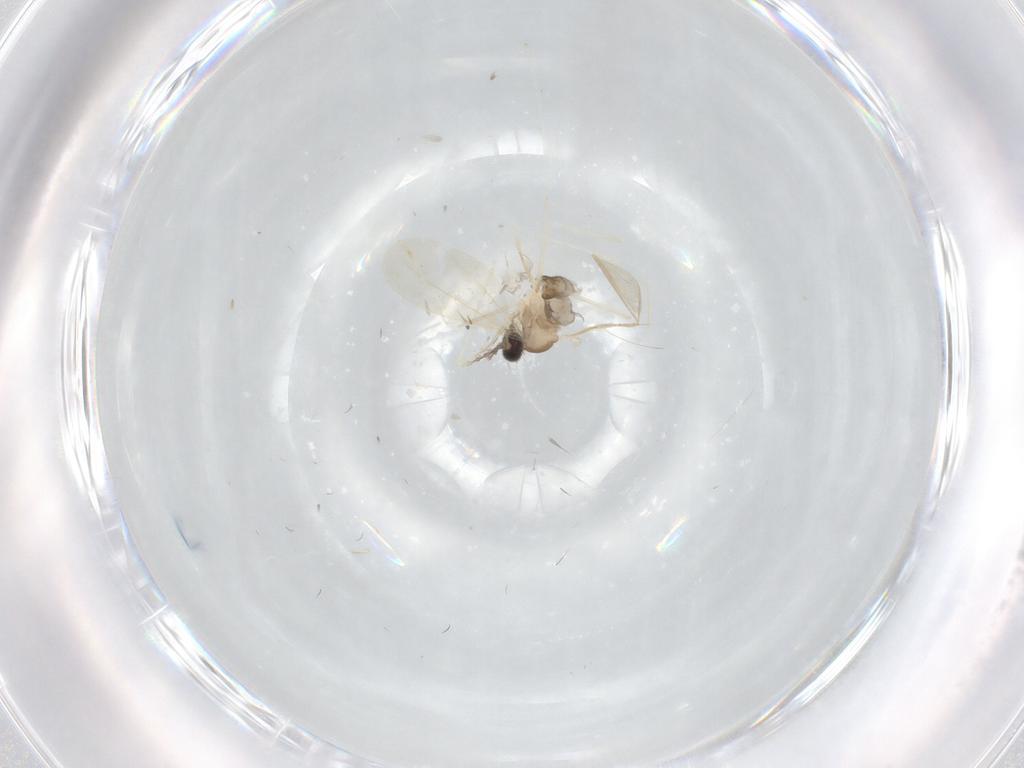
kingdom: Animalia
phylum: Arthropoda
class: Insecta
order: Diptera
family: Cecidomyiidae
